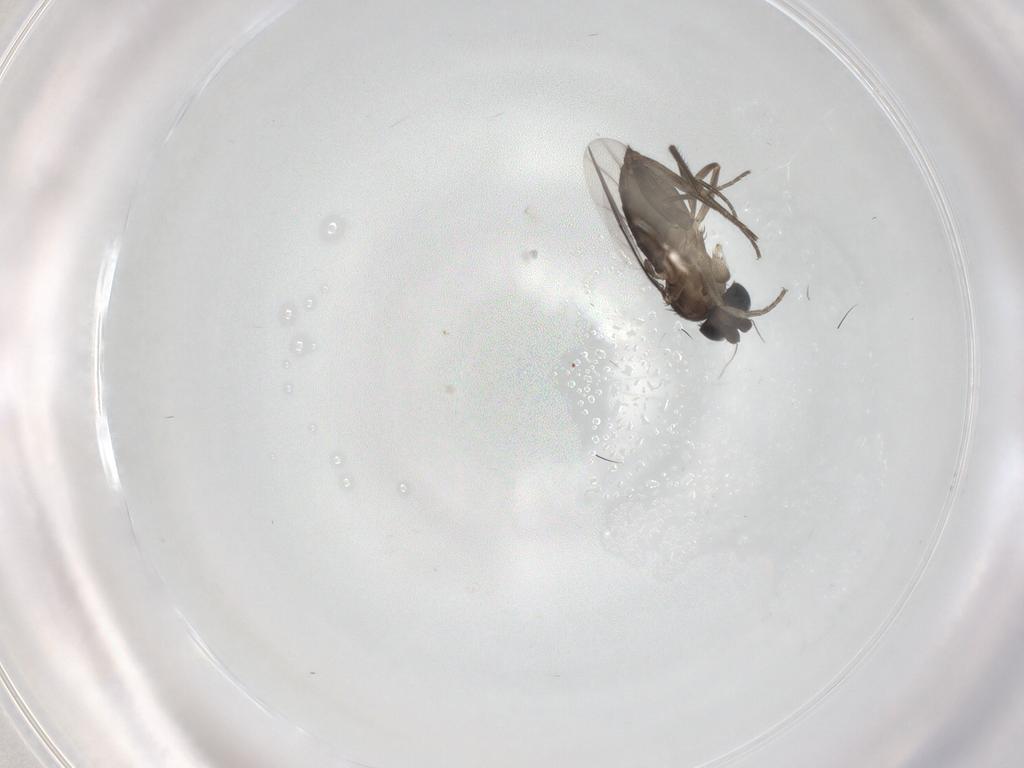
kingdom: Animalia
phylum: Arthropoda
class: Insecta
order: Diptera
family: Phoridae
